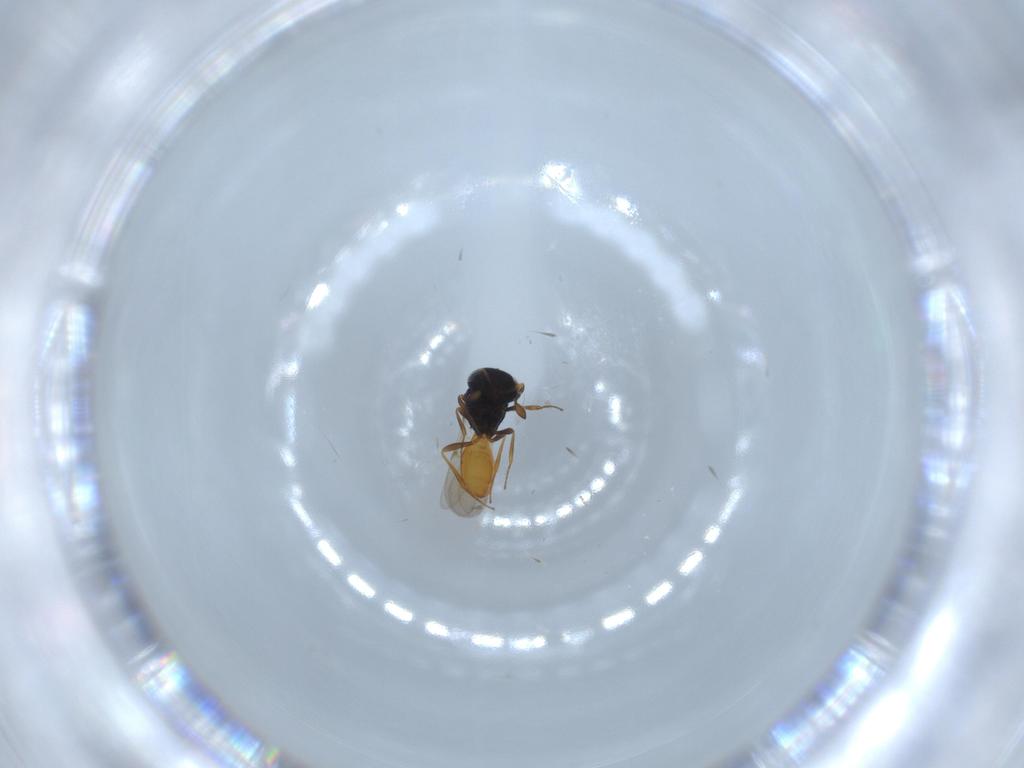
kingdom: Animalia
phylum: Arthropoda
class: Insecta
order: Hymenoptera
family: Scelionidae
